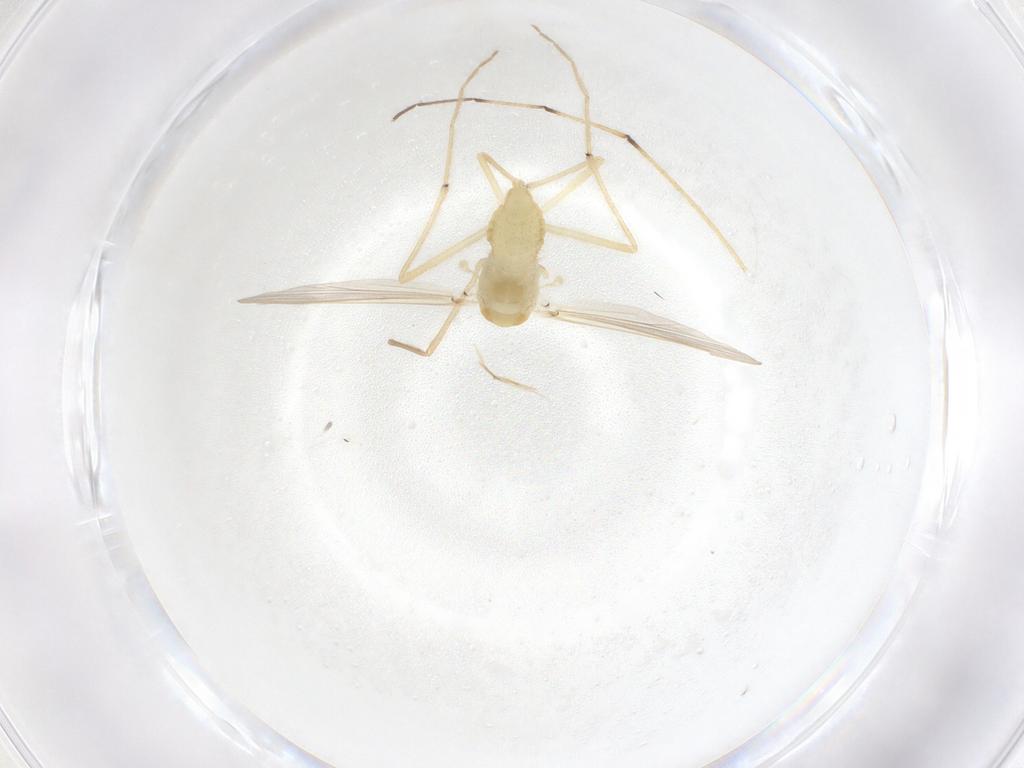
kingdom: Animalia
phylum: Arthropoda
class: Insecta
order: Diptera
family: Chironomidae
